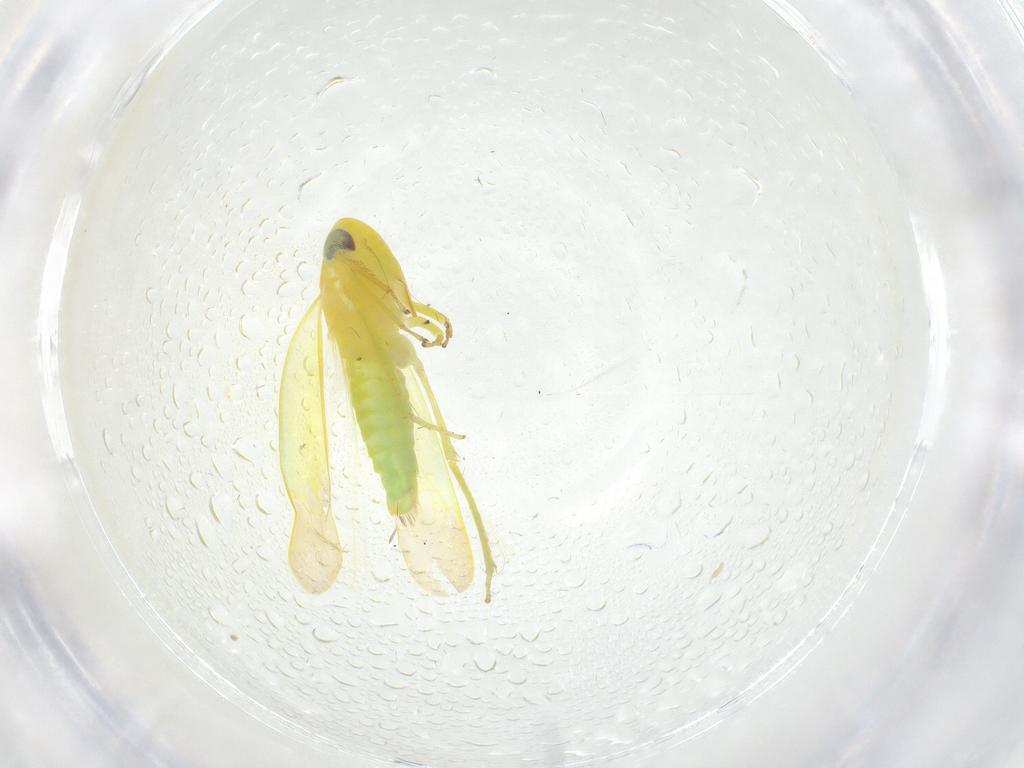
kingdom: Animalia
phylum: Arthropoda
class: Insecta
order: Hemiptera
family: Cicadellidae
